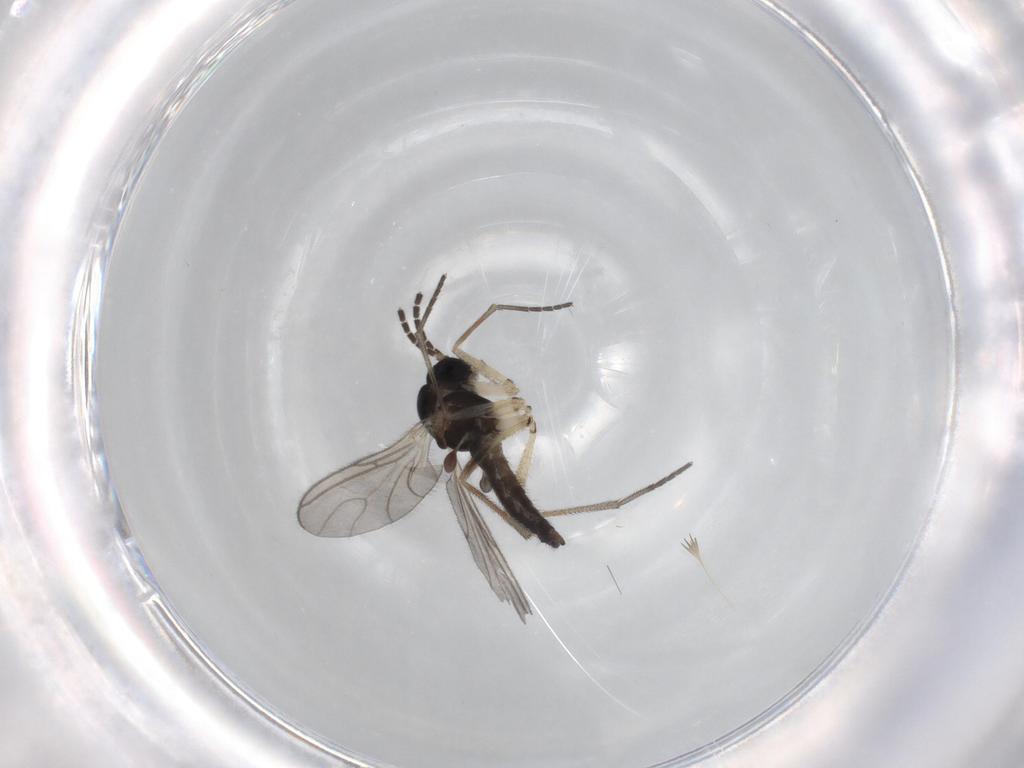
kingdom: Animalia
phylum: Arthropoda
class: Insecta
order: Diptera
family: Sciaridae
